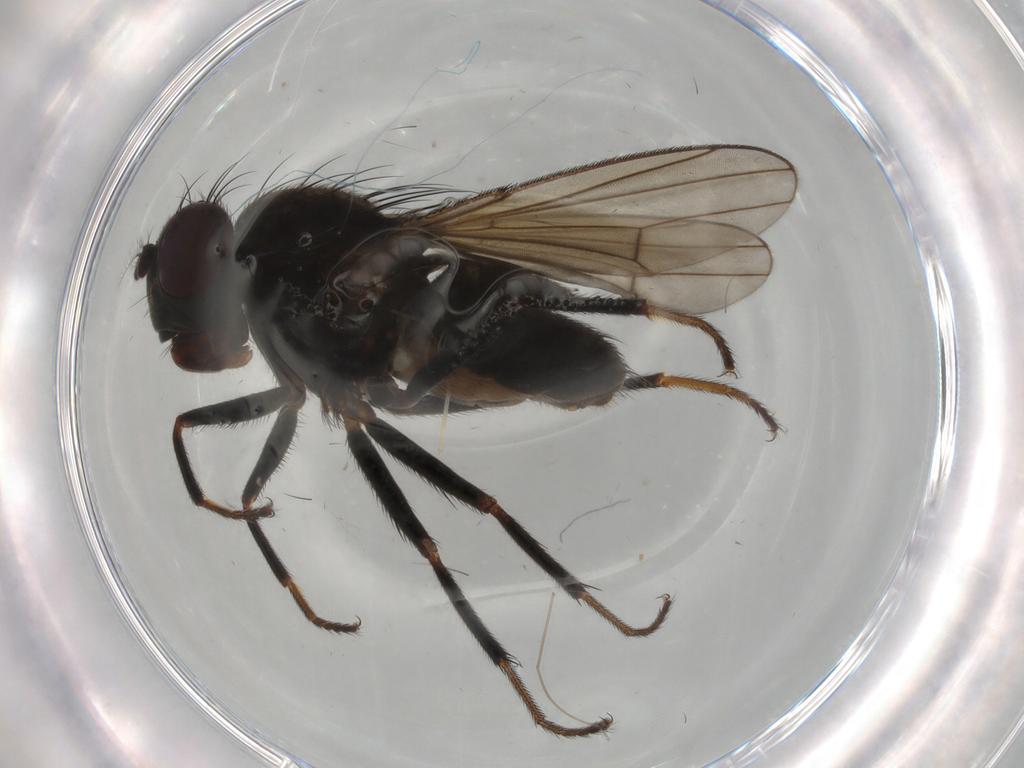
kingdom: Animalia
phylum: Arthropoda
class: Insecta
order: Diptera
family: Ephydridae
